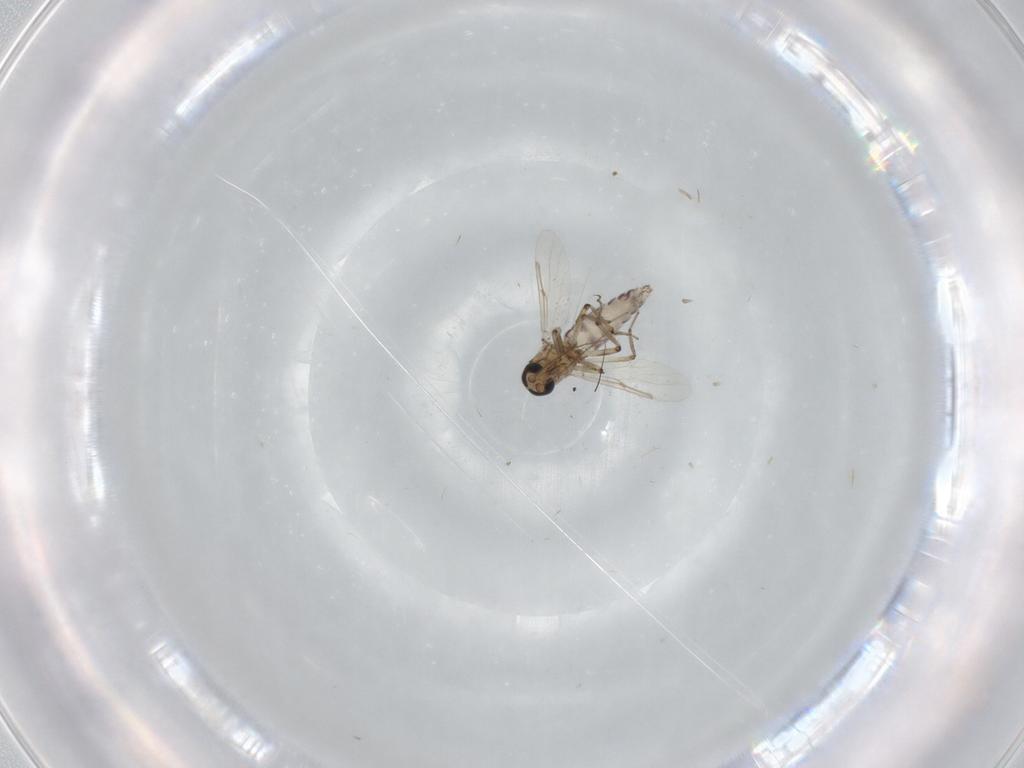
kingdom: Animalia
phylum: Arthropoda
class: Insecta
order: Diptera
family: Ceratopogonidae
